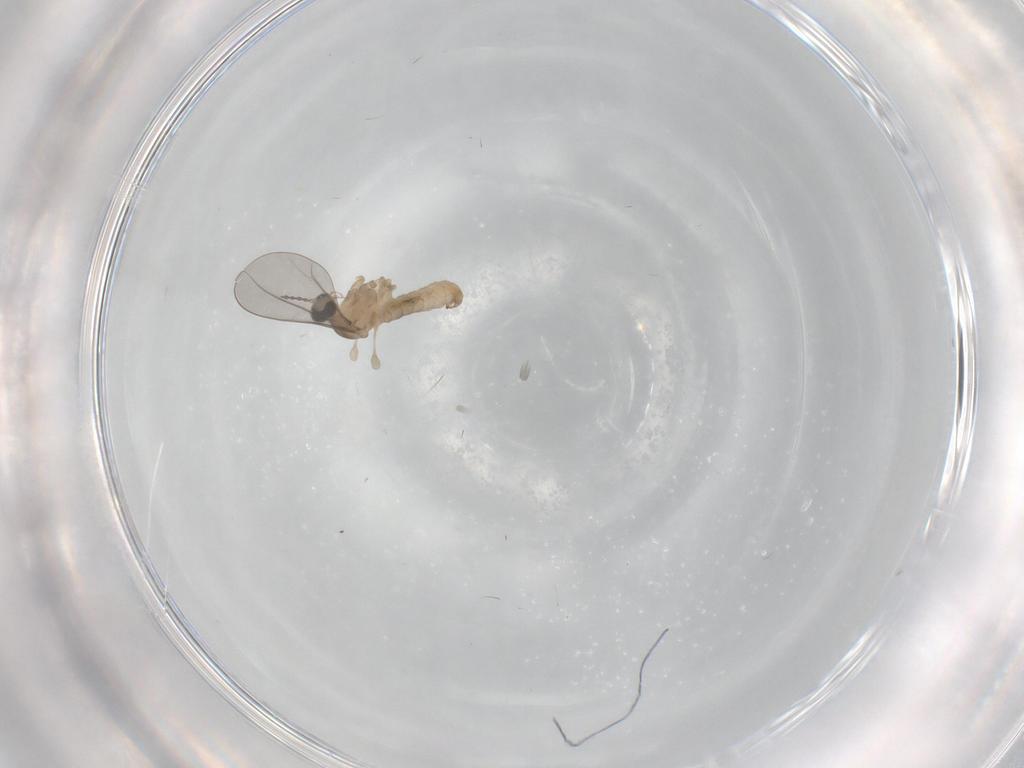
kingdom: Animalia
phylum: Arthropoda
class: Insecta
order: Diptera
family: Cecidomyiidae
